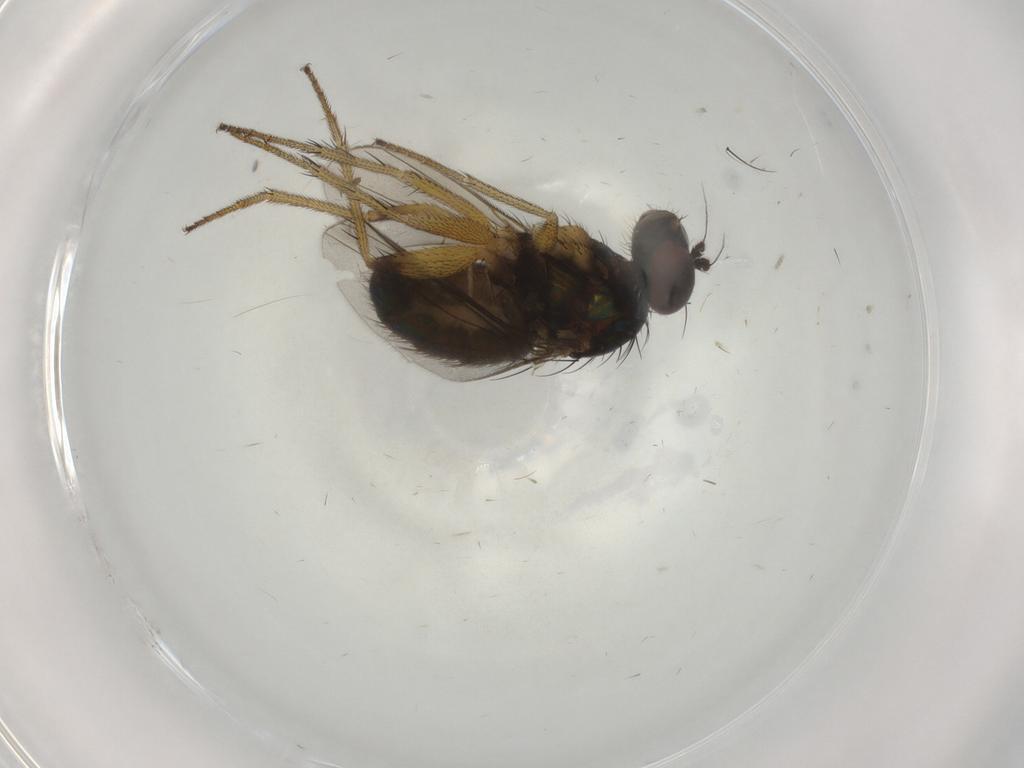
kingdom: Animalia
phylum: Arthropoda
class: Insecta
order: Diptera
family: Dolichopodidae
